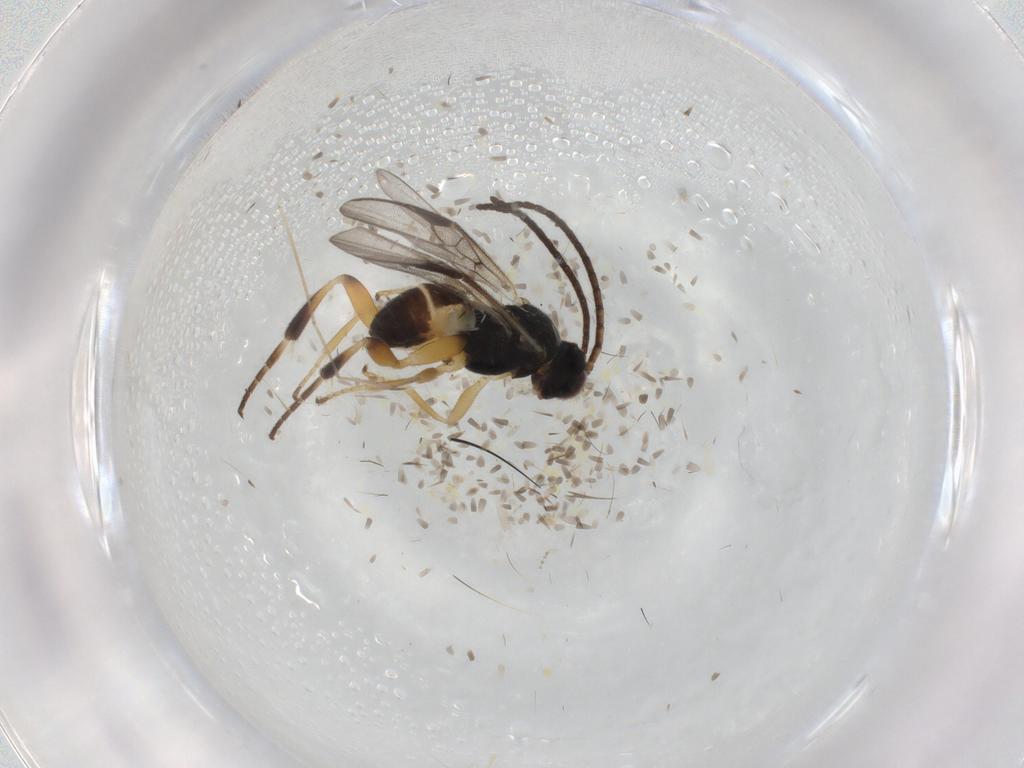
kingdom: Animalia
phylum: Arthropoda
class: Insecta
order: Hymenoptera
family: Braconidae
